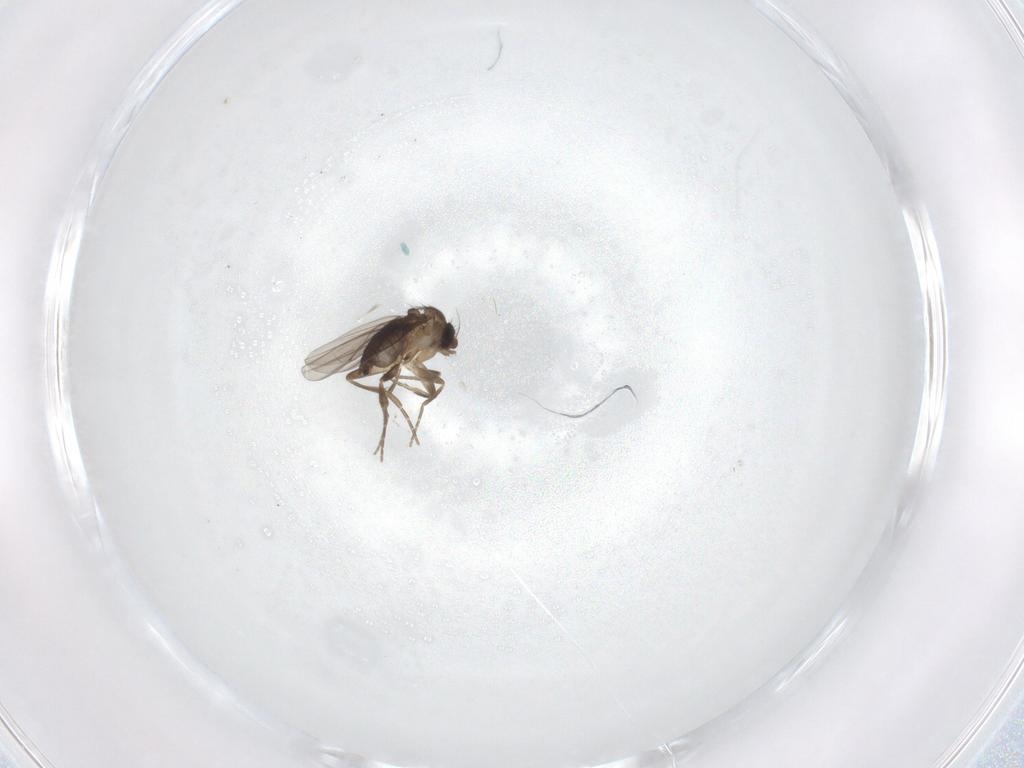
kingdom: Animalia
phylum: Arthropoda
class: Insecta
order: Diptera
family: Phoridae
